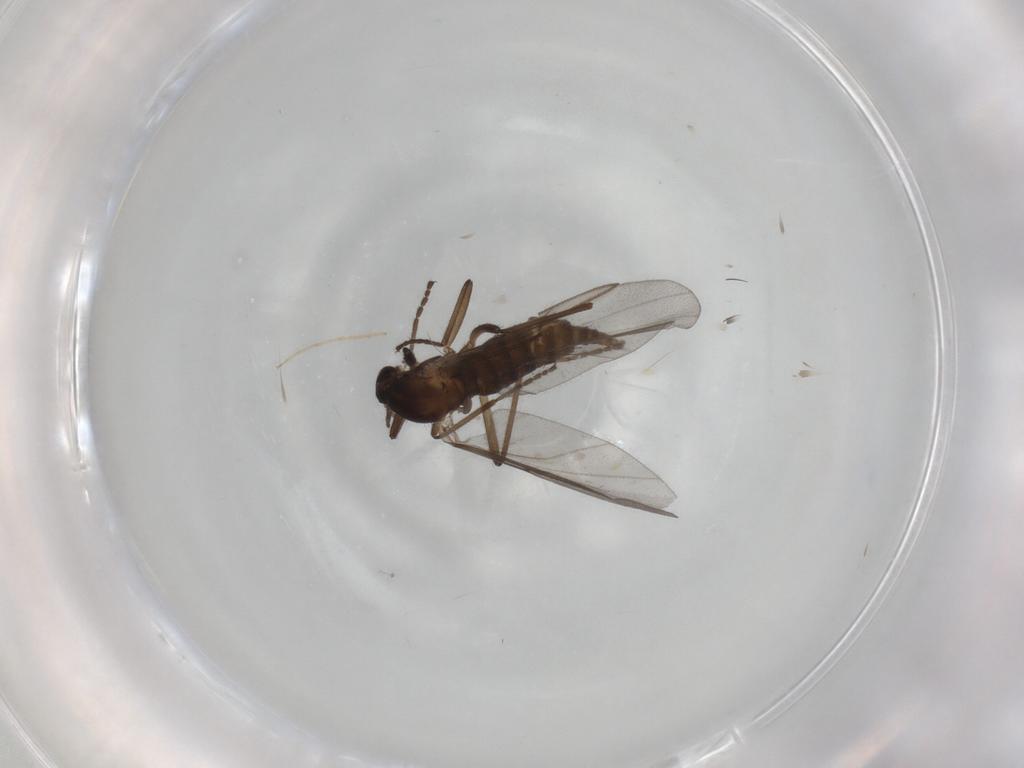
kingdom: Animalia
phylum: Arthropoda
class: Insecta
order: Diptera
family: Cecidomyiidae
